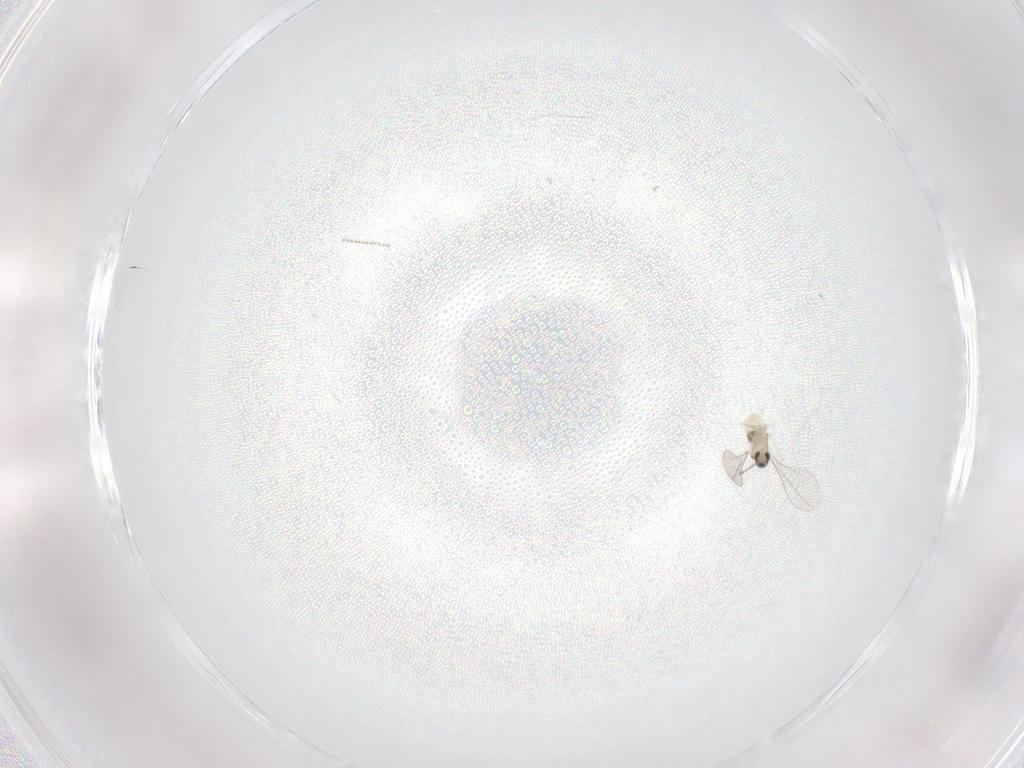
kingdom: Animalia
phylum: Arthropoda
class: Insecta
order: Diptera
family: Cecidomyiidae
